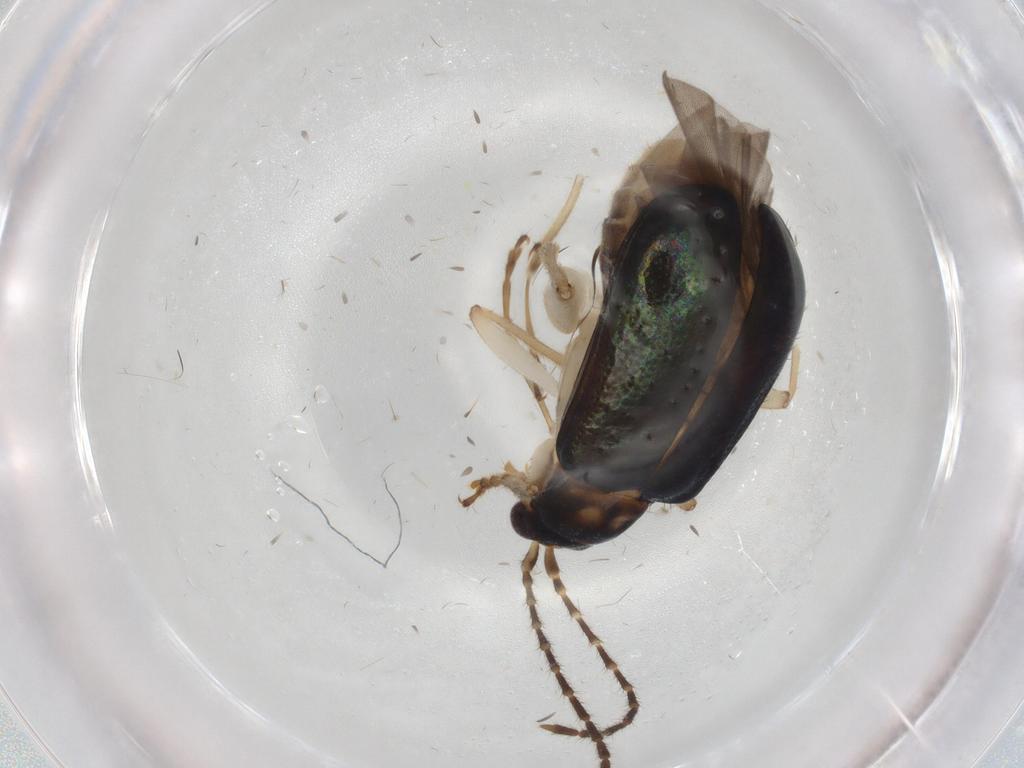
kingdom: Animalia
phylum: Arthropoda
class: Insecta
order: Coleoptera
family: Chrysomelidae
